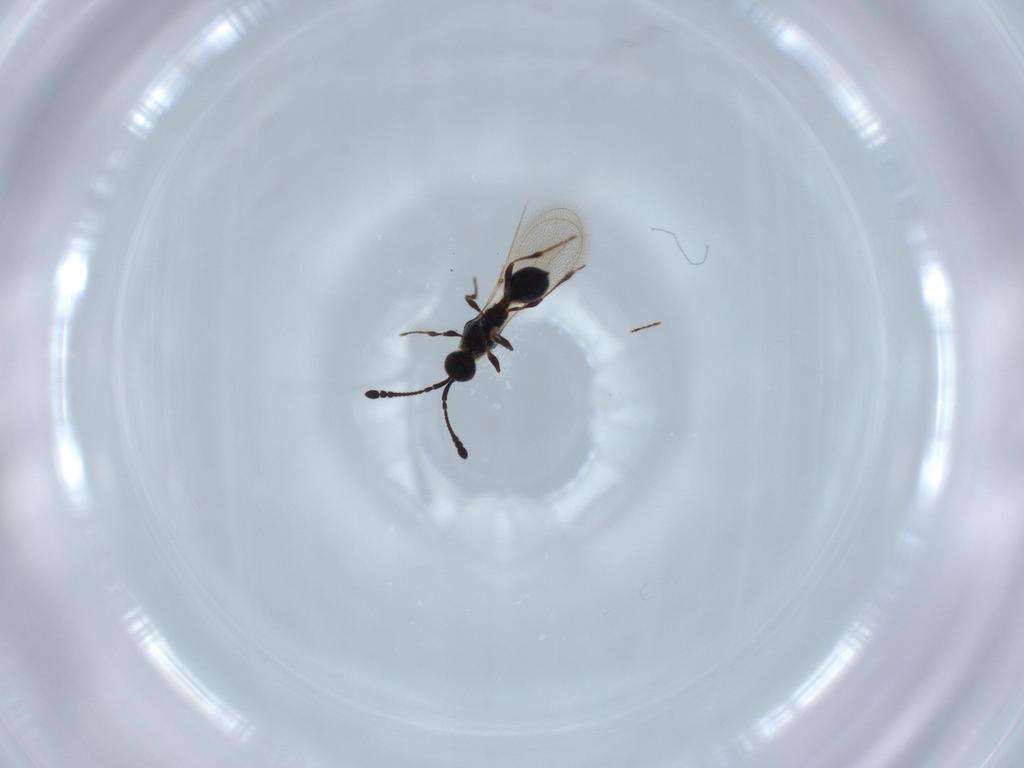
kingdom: Animalia
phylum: Arthropoda
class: Insecta
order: Hymenoptera
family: Diapriidae
